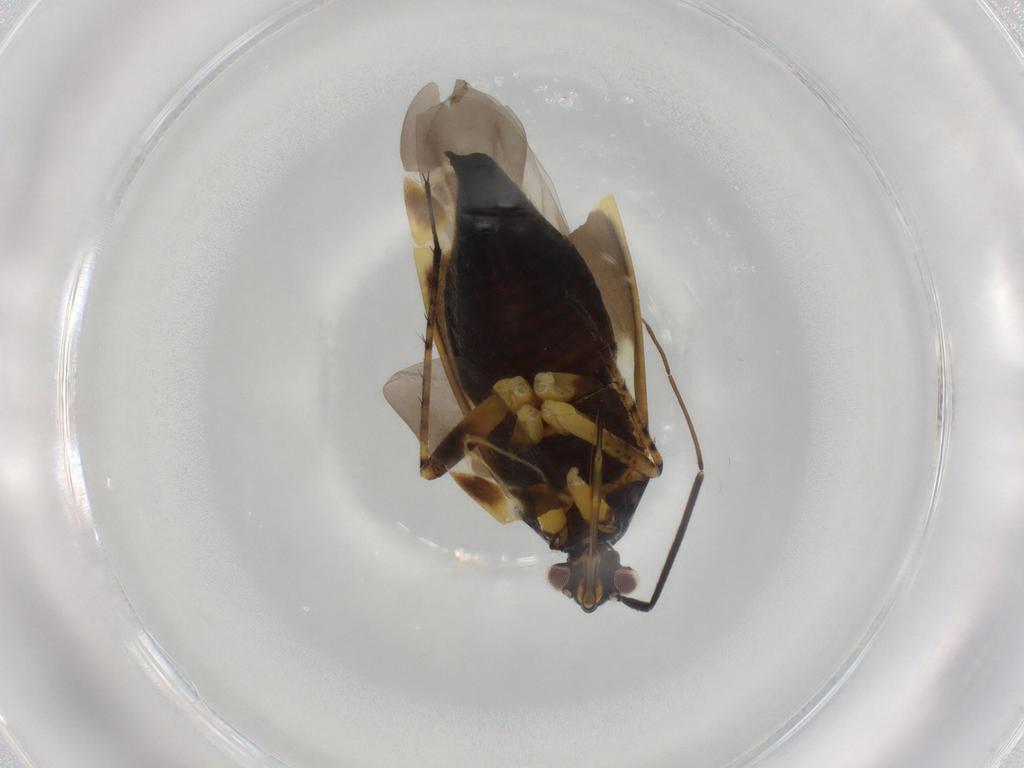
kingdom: Animalia
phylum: Arthropoda
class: Insecta
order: Hemiptera
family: Miridae
